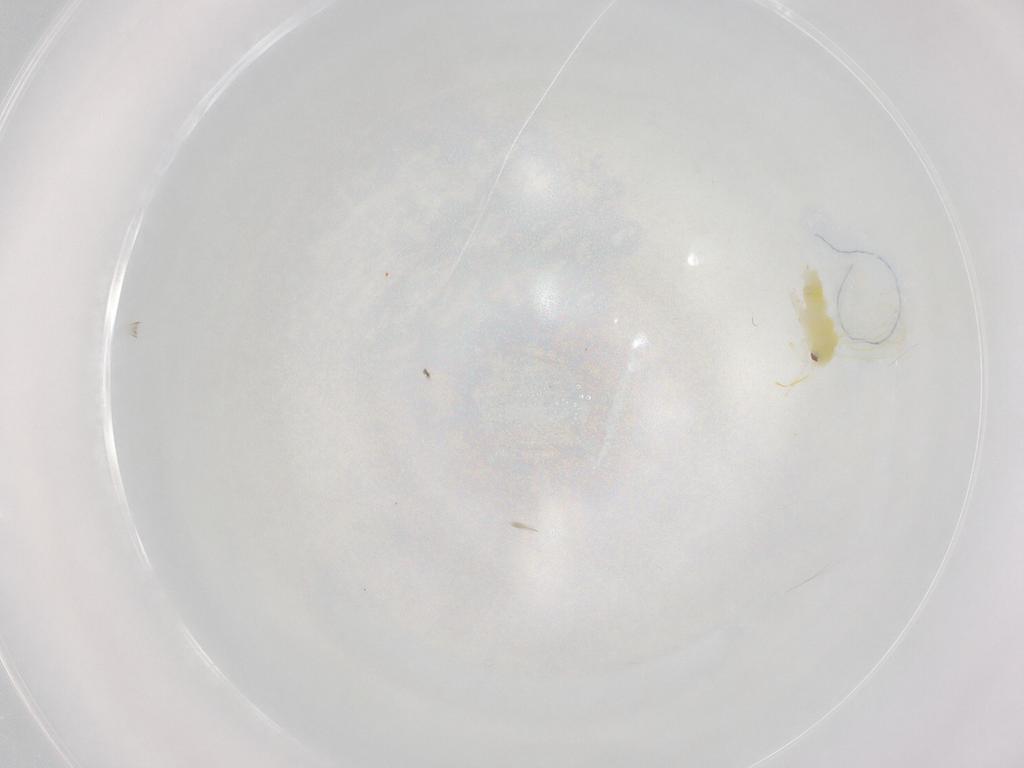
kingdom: Animalia
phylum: Arthropoda
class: Insecta
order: Hemiptera
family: Aleyrodidae
